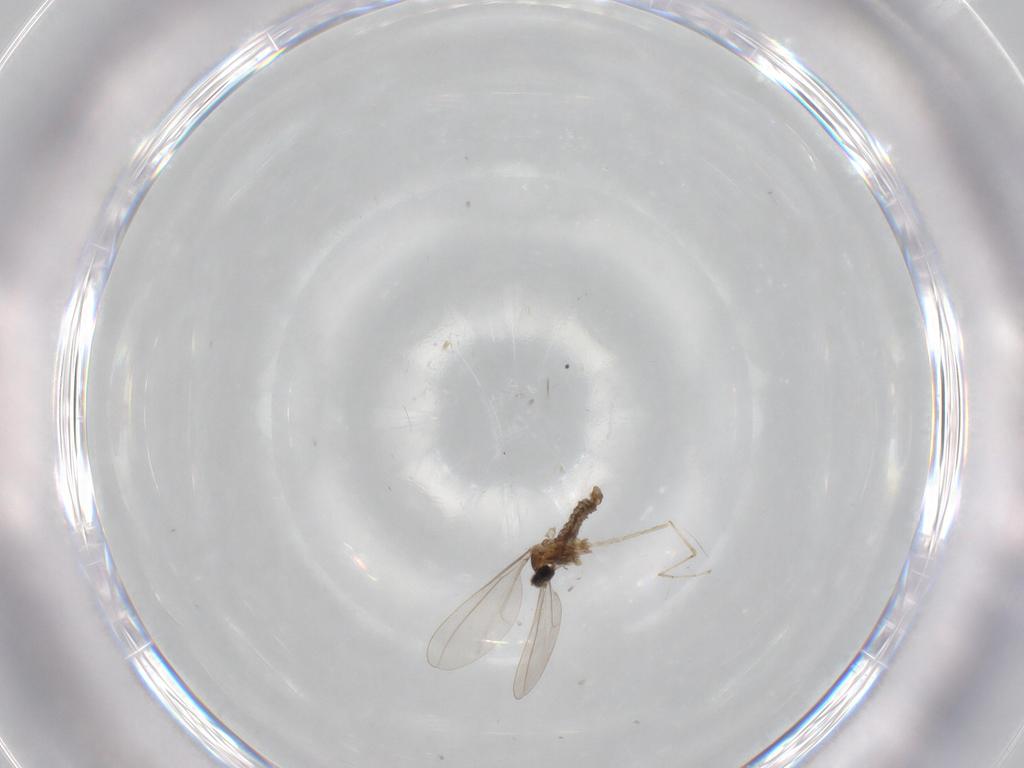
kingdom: Animalia
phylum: Arthropoda
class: Insecta
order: Diptera
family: Cecidomyiidae
